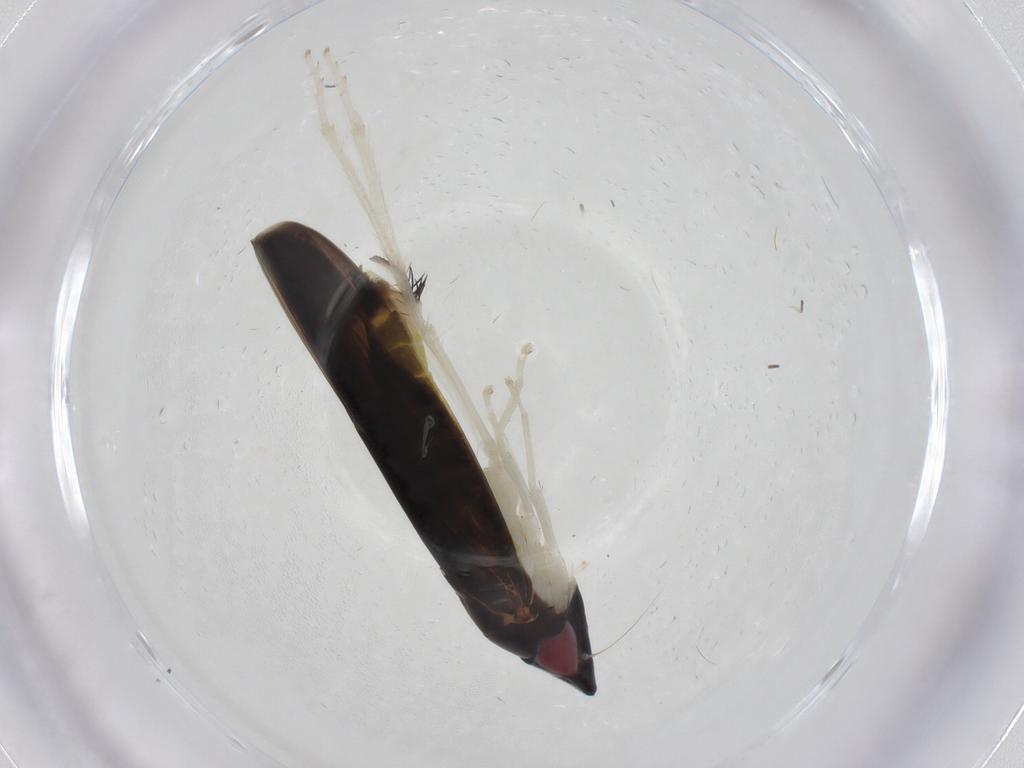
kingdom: Animalia
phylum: Arthropoda
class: Insecta
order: Hemiptera
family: Cicadellidae
